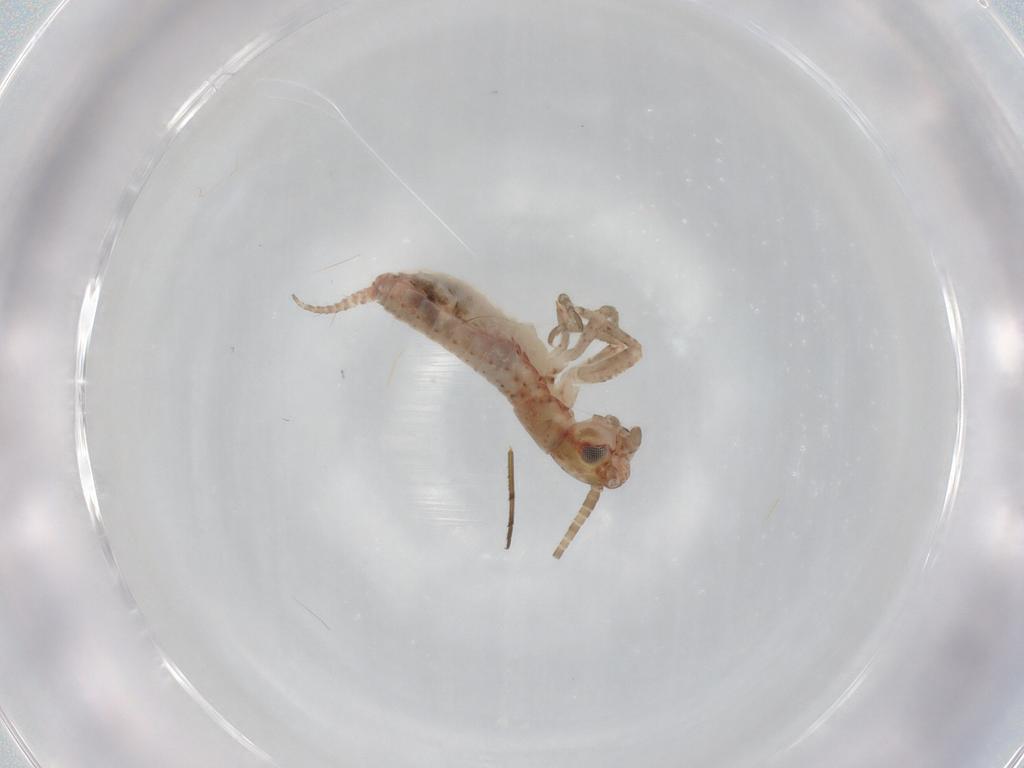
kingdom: Animalia
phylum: Arthropoda
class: Insecta
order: Orthoptera
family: Mogoplistidae
